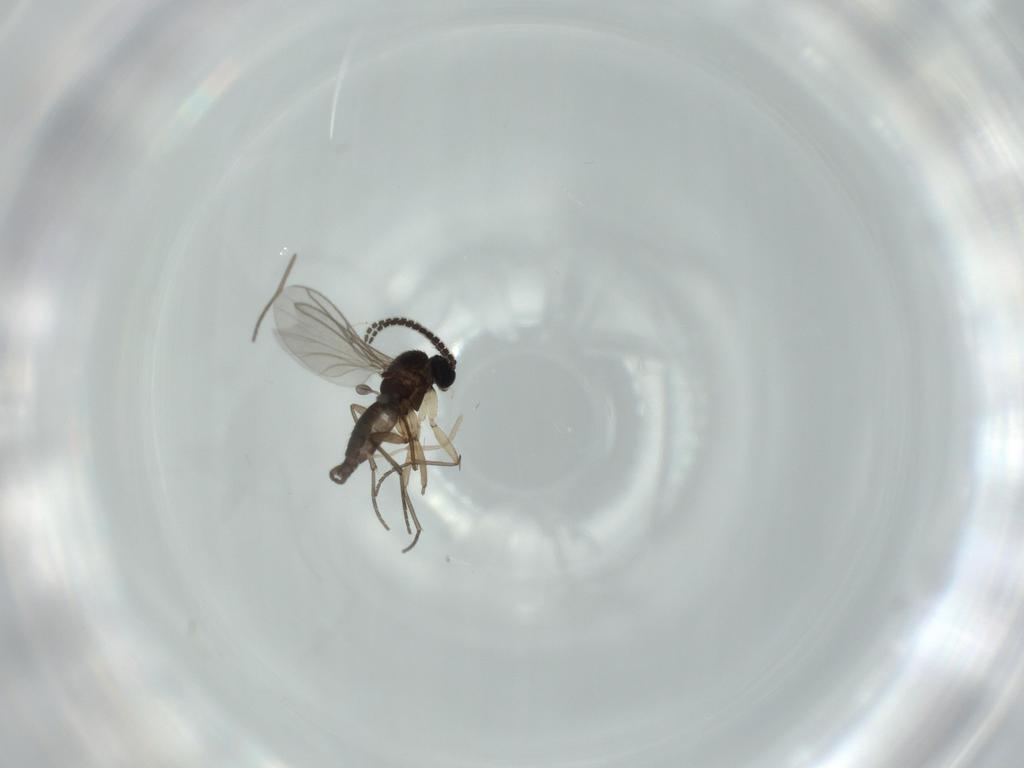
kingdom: Animalia
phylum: Arthropoda
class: Insecta
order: Diptera
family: Sciaridae
